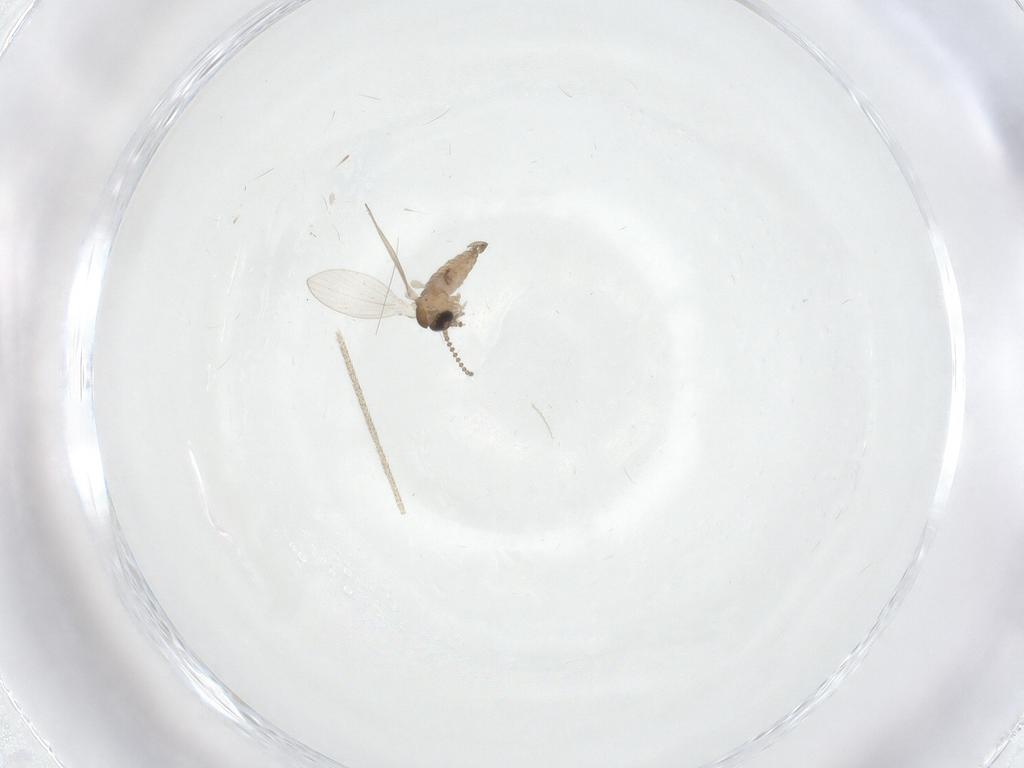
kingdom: Animalia
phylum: Arthropoda
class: Insecta
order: Diptera
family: Psychodidae
